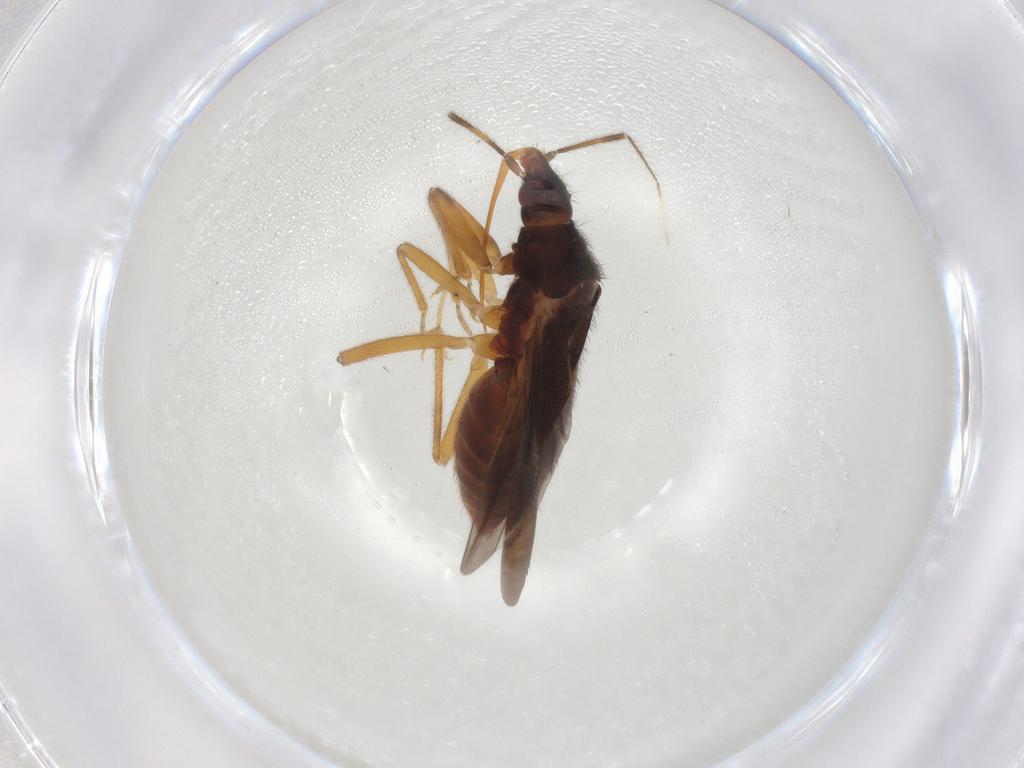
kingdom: Animalia
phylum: Arthropoda
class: Insecta
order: Hemiptera
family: Anthocoridae
